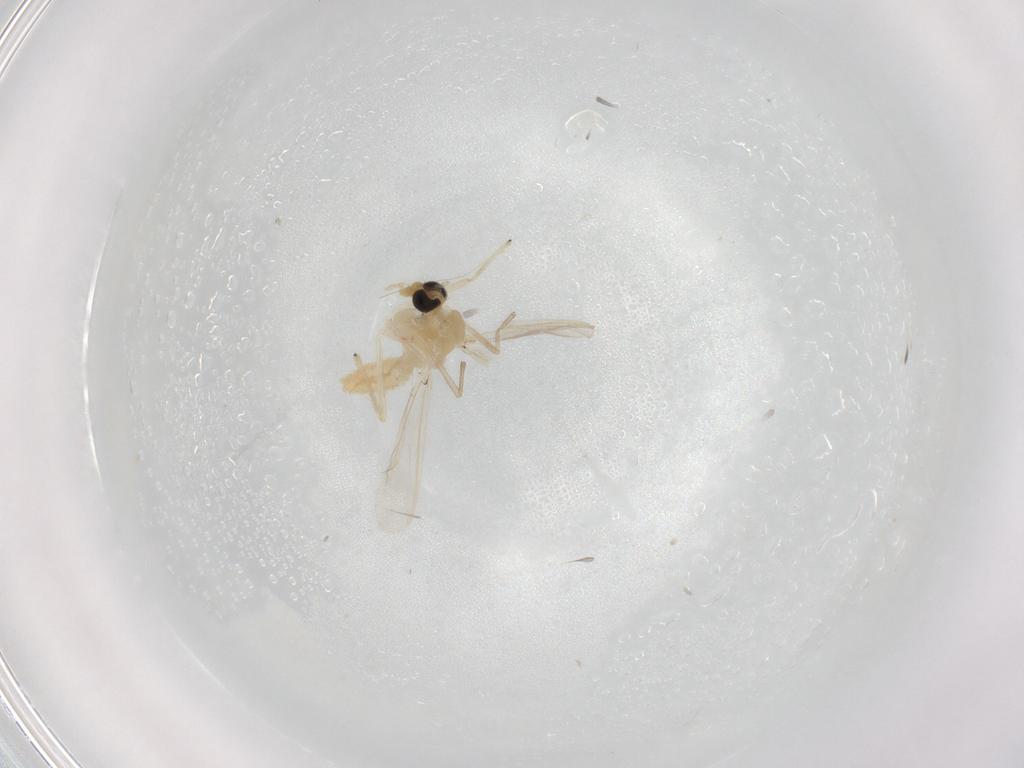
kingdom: Animalia
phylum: Arthropoda
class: Insecta
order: Diptera
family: Chironomidae
